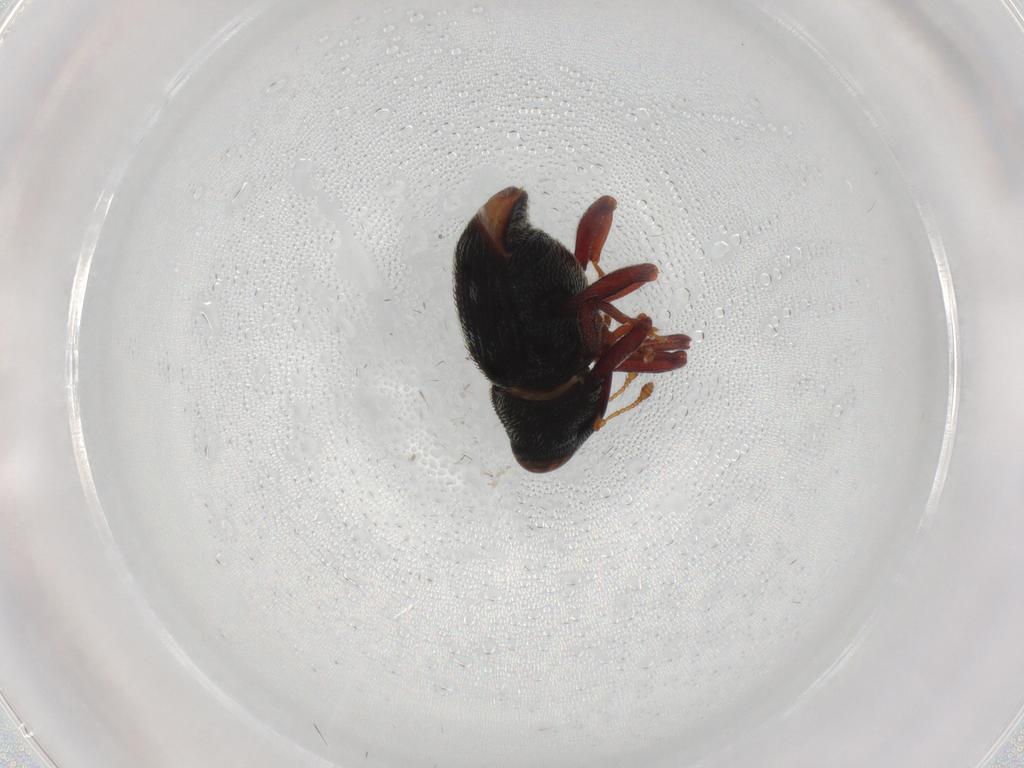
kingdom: Animalia
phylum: Arthropoda
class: Insecta
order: Coleoptera
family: Curculionidae
